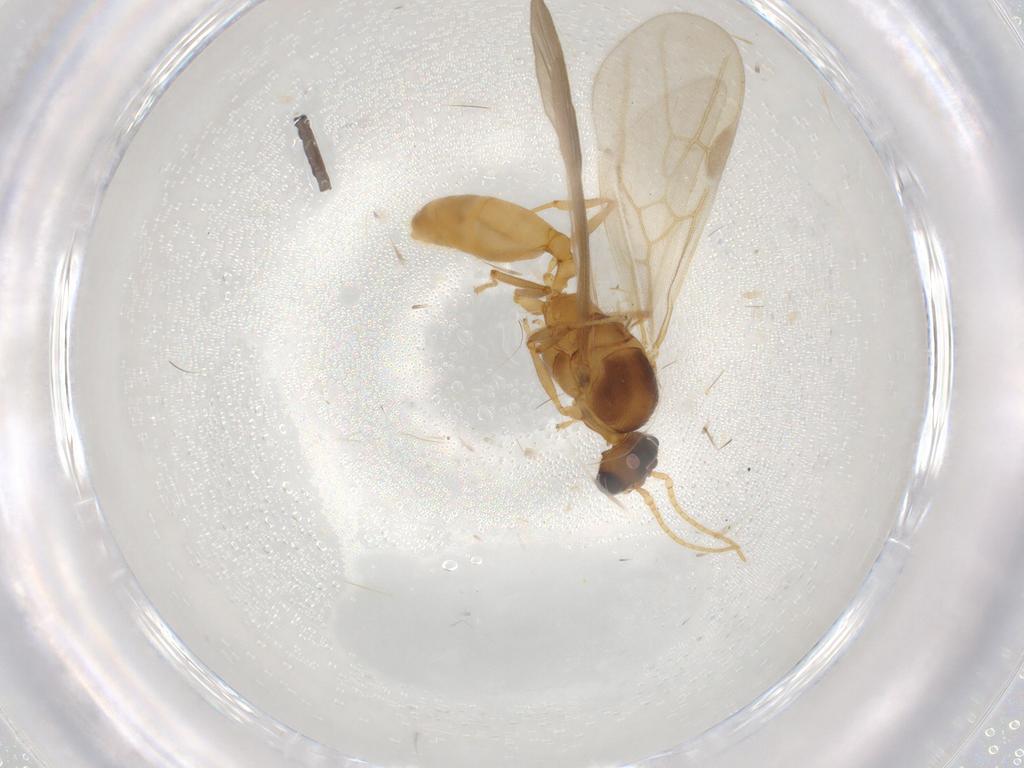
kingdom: Animalia
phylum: Arthropoda
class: Insecta
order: Hymenoptera
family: Formicidae
